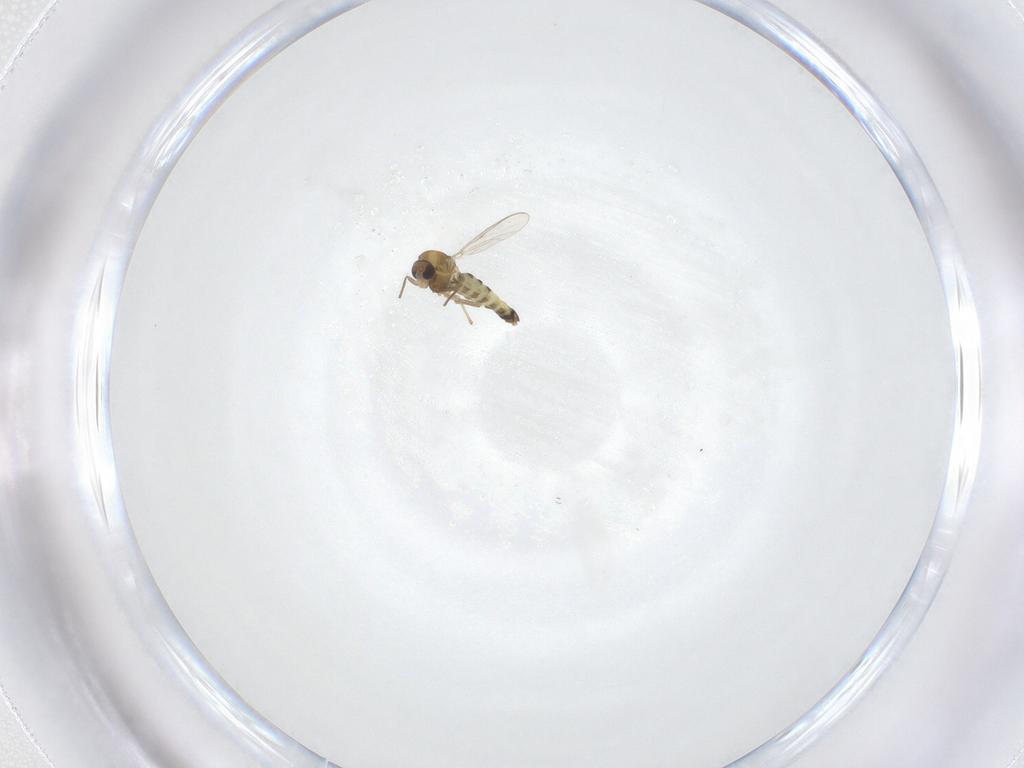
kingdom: Animalia
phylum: Arthropoda
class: Insecta
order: Diptera
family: Chironomidae
